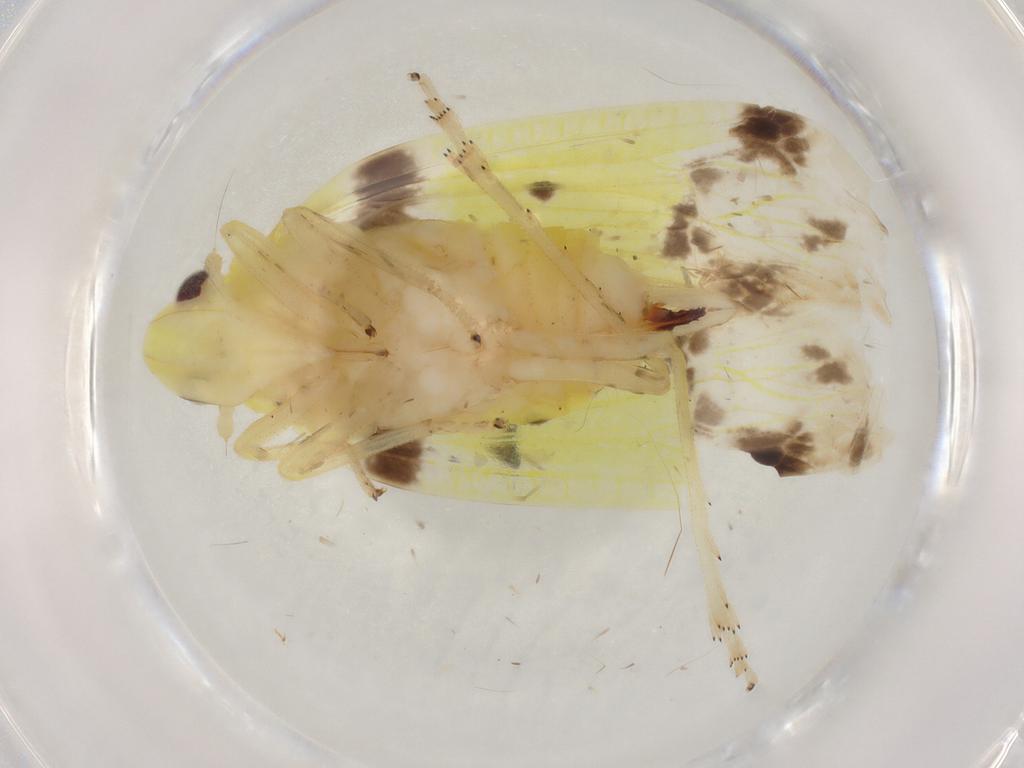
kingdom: Animalia
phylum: Arthropoda
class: Insecta
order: Hemiptera
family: Tropiduchidae
